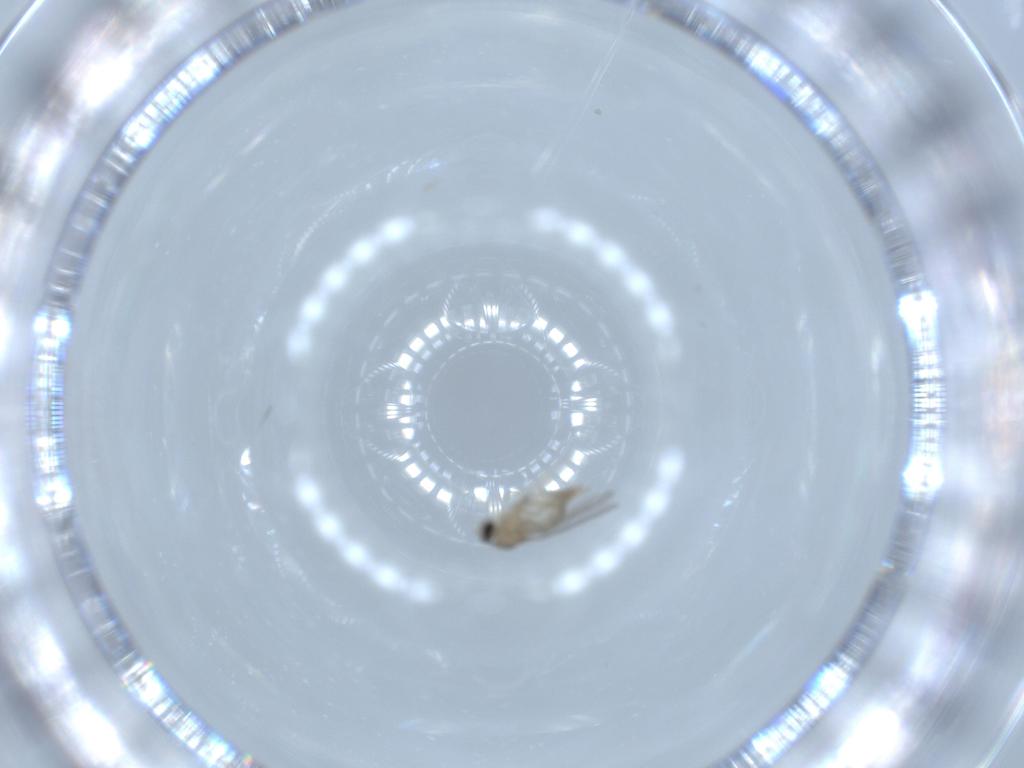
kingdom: Animalia
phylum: Arthropoda
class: Insecta
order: Diptera
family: Cecidomyiidae
